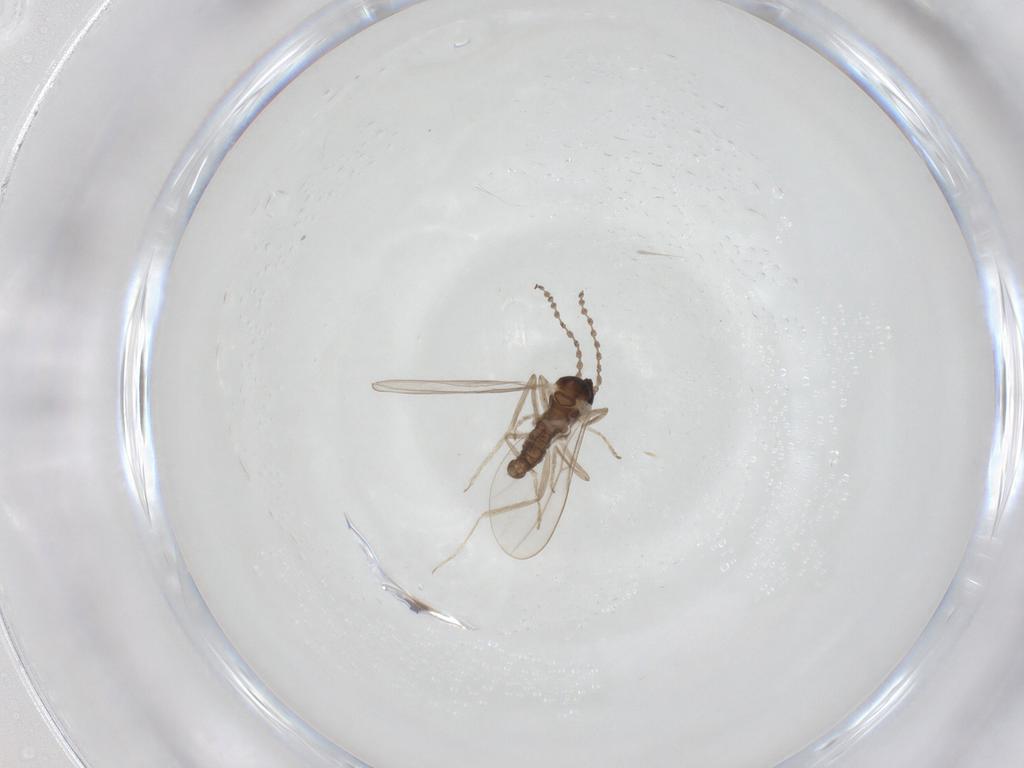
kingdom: Animalia
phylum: Arthropoda
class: Insecta
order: Diptera
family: Cecidomyiidae
